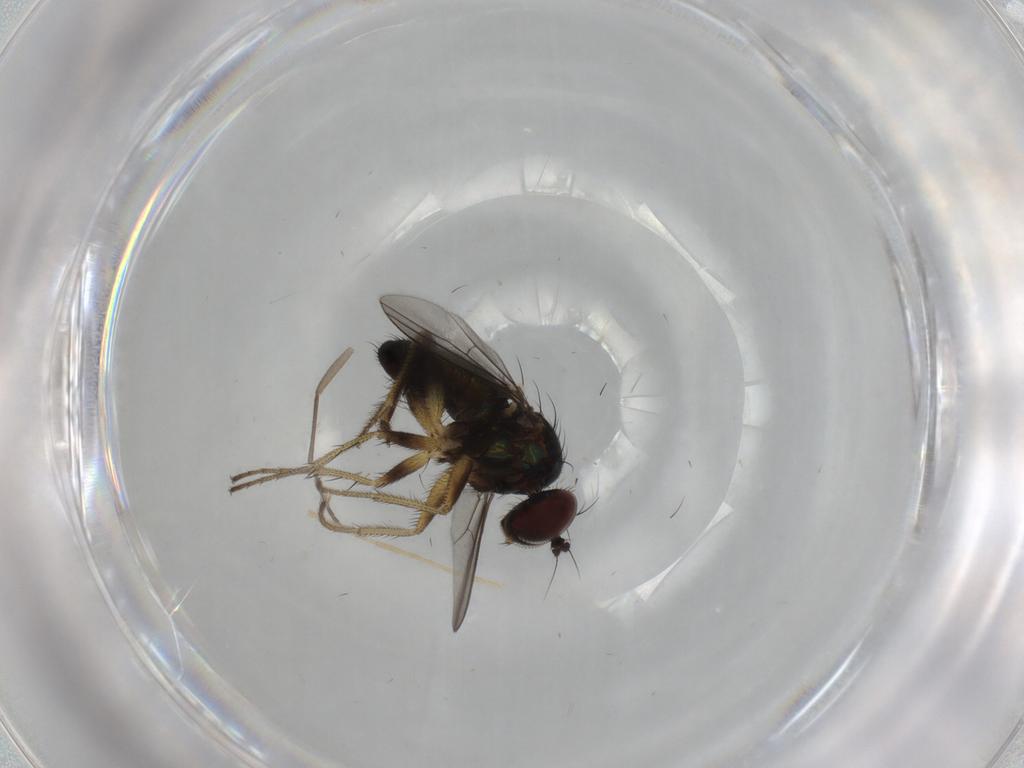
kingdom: Animalia
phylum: Arthropoda
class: Insecta
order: Diptera
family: Dolichopodidae
